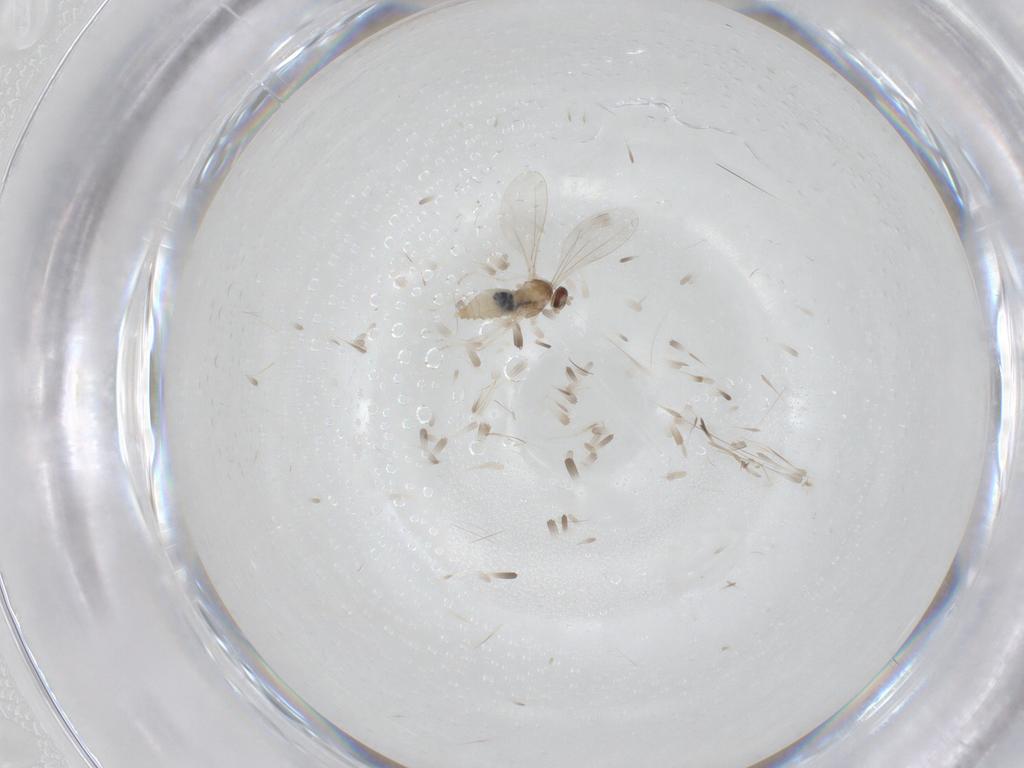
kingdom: Animalia
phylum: Arthropoda
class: Insecta
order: Diptera
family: Cecidomyiidae
